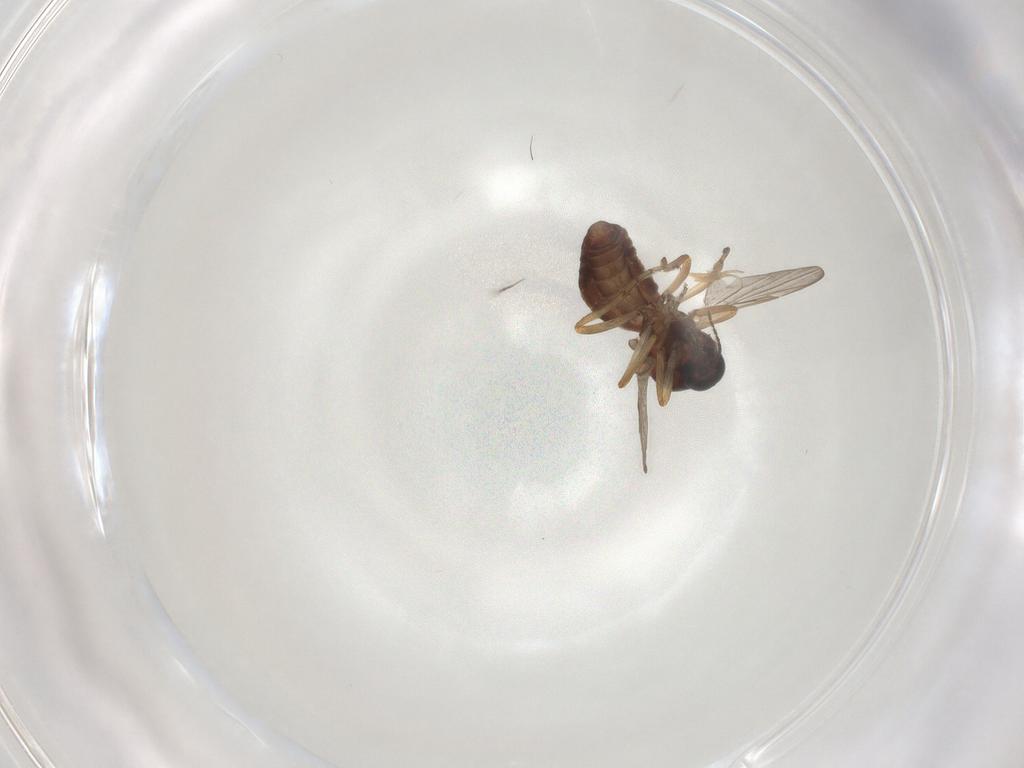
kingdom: Animalia
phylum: Arthropoda
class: Insecta
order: Diptera
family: Ceratopogonidae
